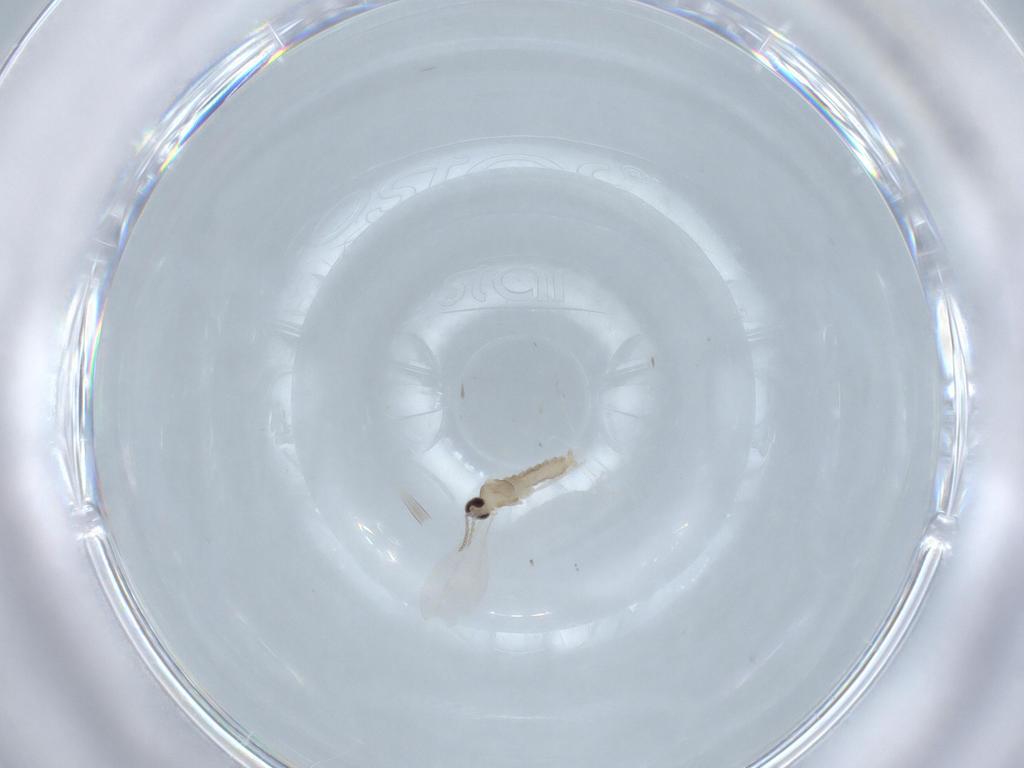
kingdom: Animalia
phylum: Arthropoda
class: Insecta
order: Diptera
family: Cecidomyiidae
